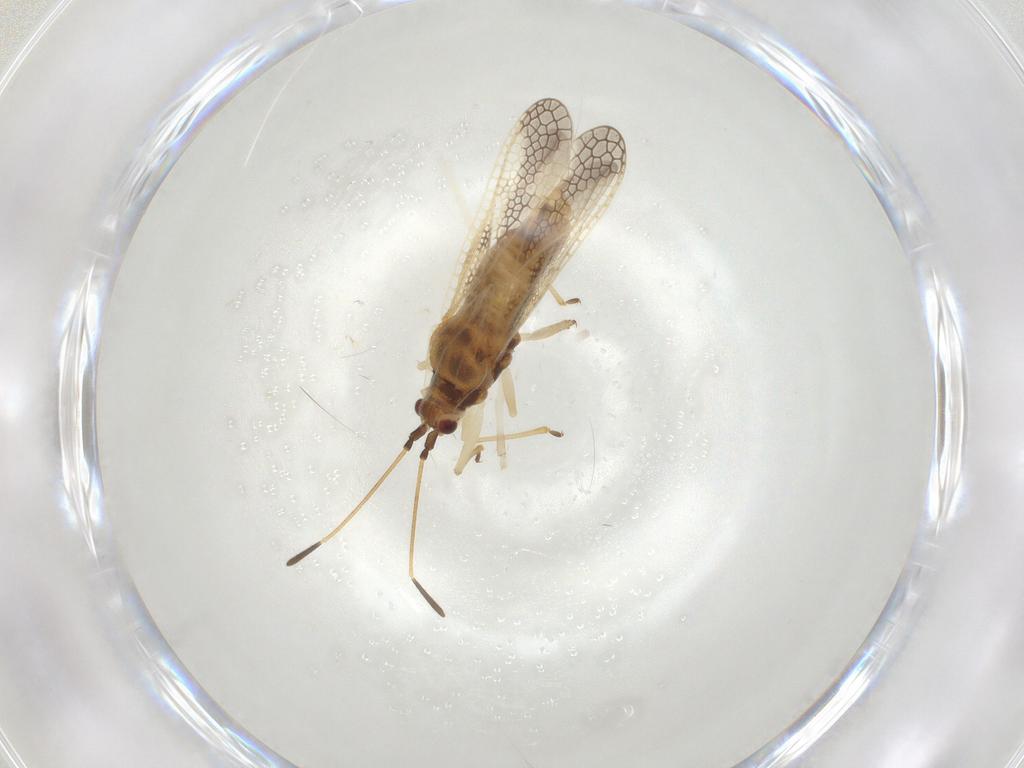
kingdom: Animalia
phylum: Arthropoda
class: Insecta
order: Hemiptera
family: Tingidae
